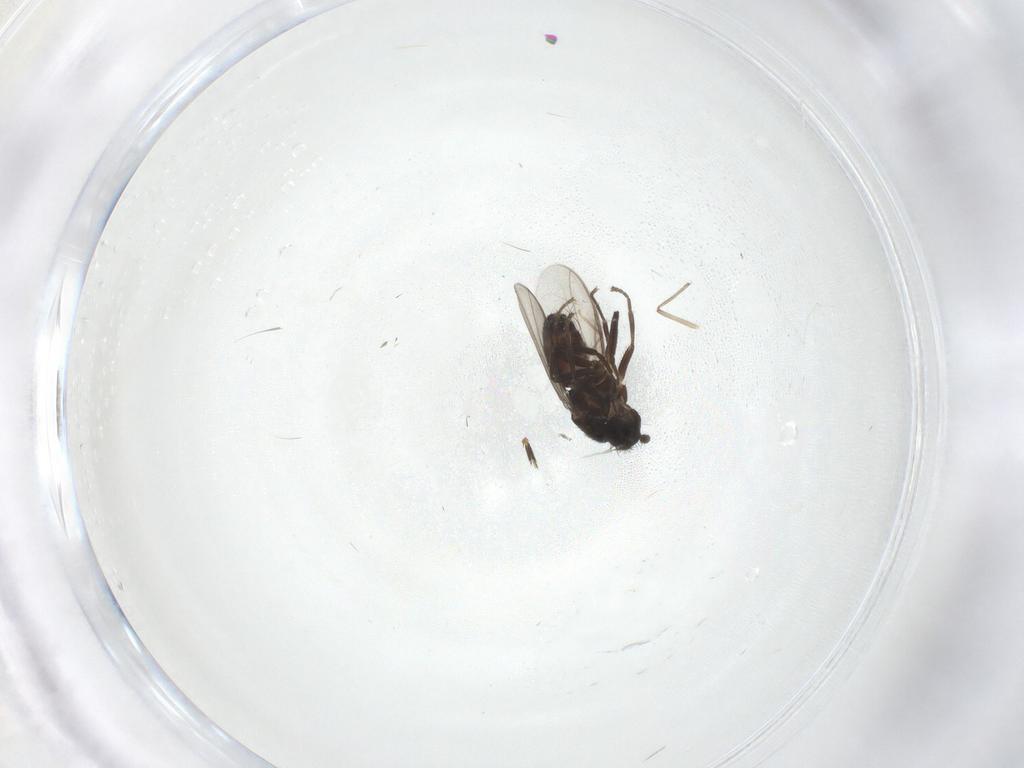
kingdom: Animalia
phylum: Arthropoda
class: Insecta
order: Diptera
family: Chironomidae
